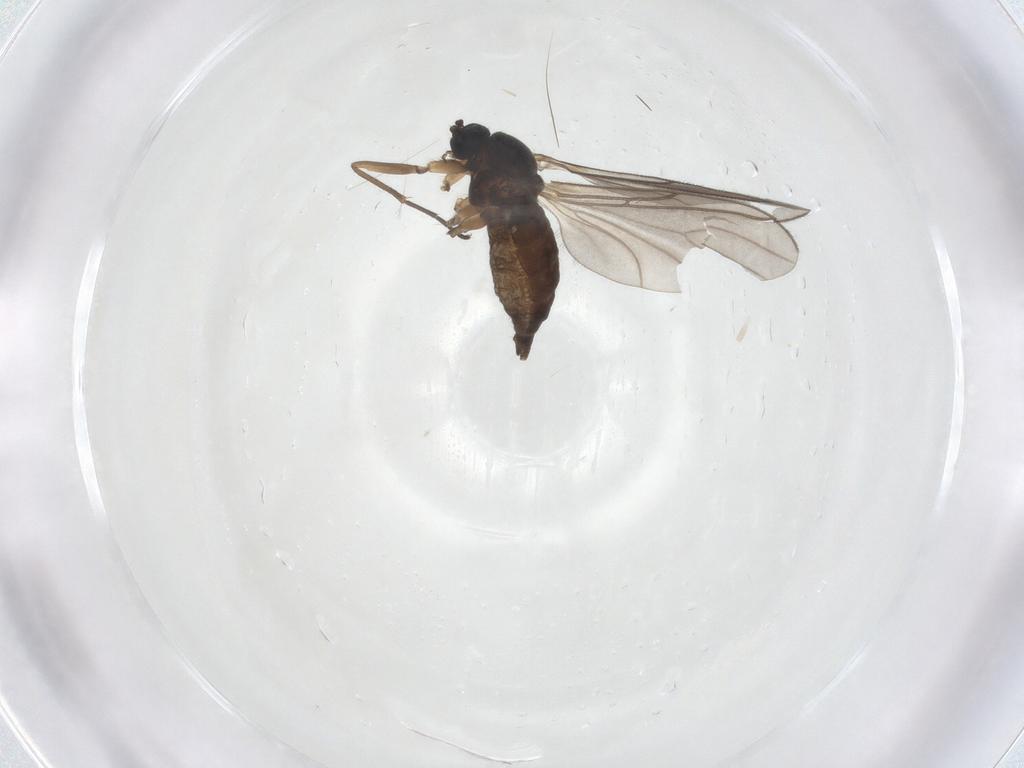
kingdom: Animalia
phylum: Arthropoda
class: Insecta
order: Diptera
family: Sciaridae
